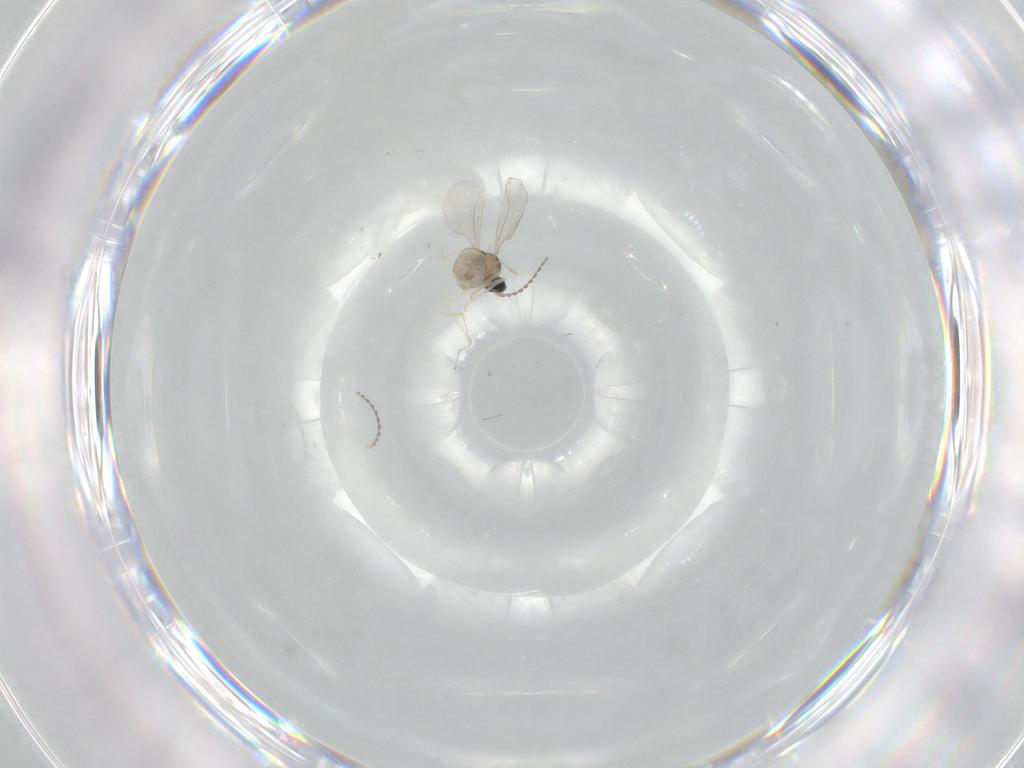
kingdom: Animalia
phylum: Arthropoda
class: Insecta
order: Diptera
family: Cecidomyiidae
